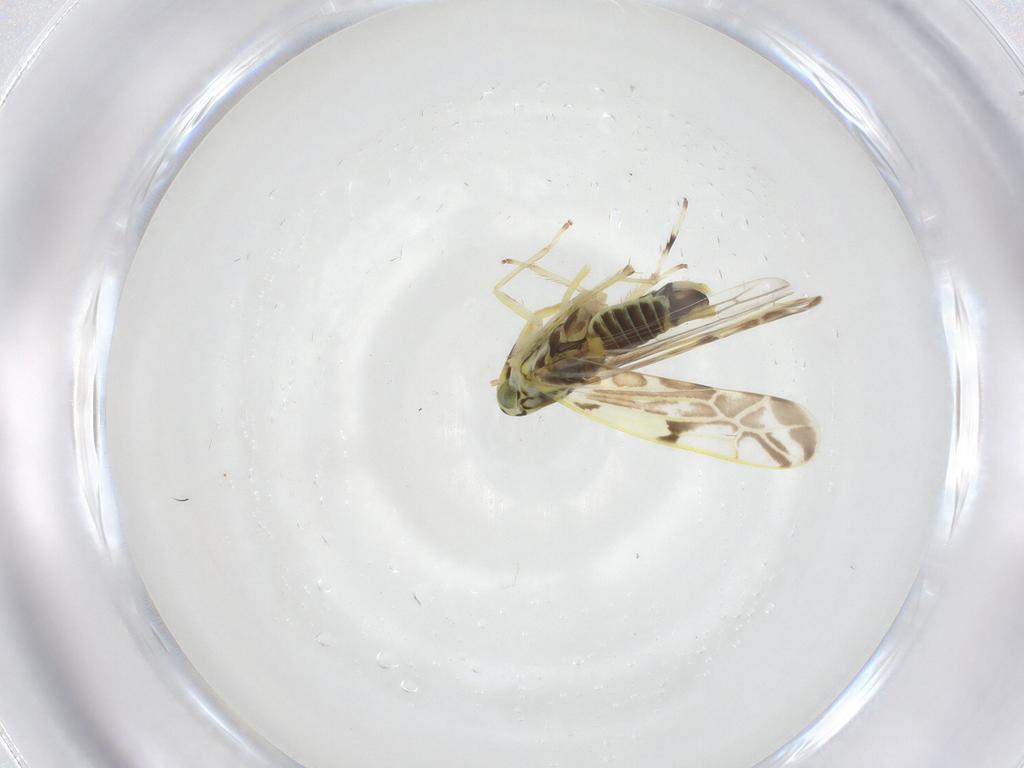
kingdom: Animalia
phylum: Arthropoda
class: Insecta
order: Hemiptera
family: Cicadellidae
